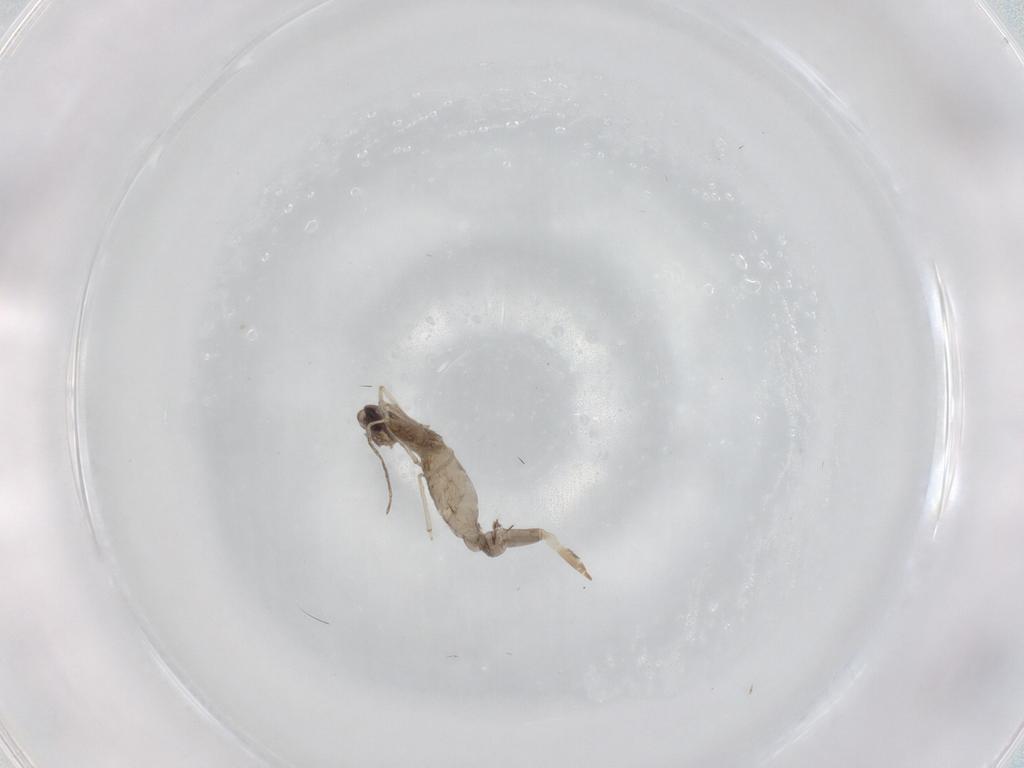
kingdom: Animalia
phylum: Arthropoda
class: Insecta
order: Diptera
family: Cecidomyiidae
